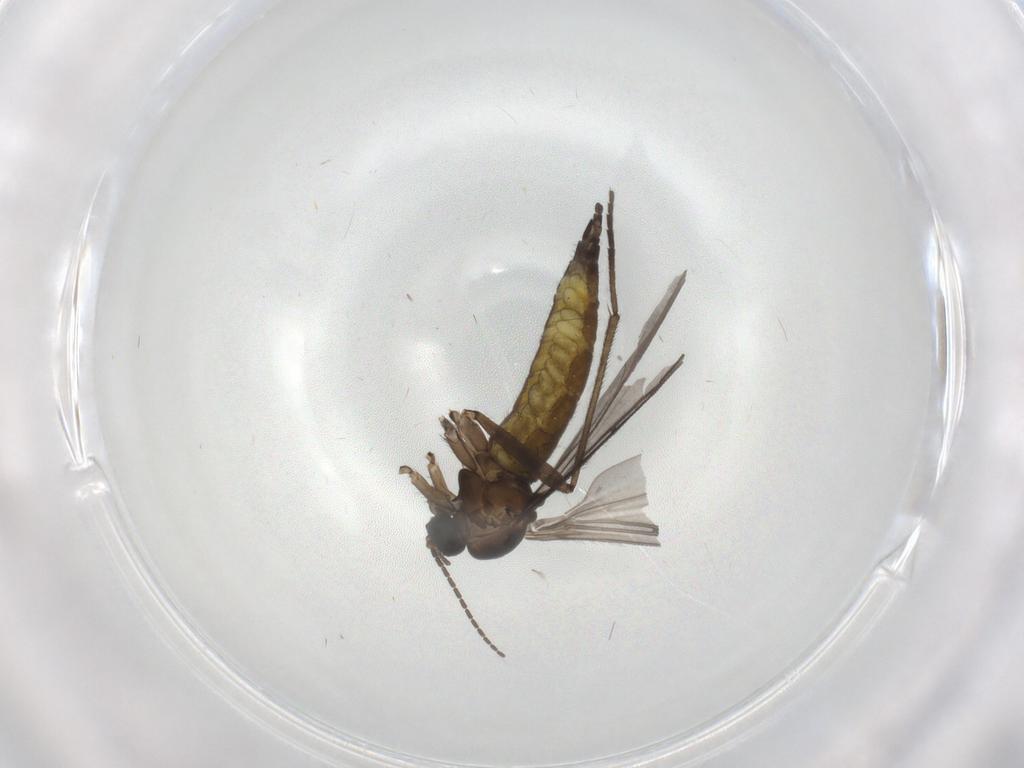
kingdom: Animalia
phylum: Arthropoda
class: Insecta
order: Diptera
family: Sciaridae
